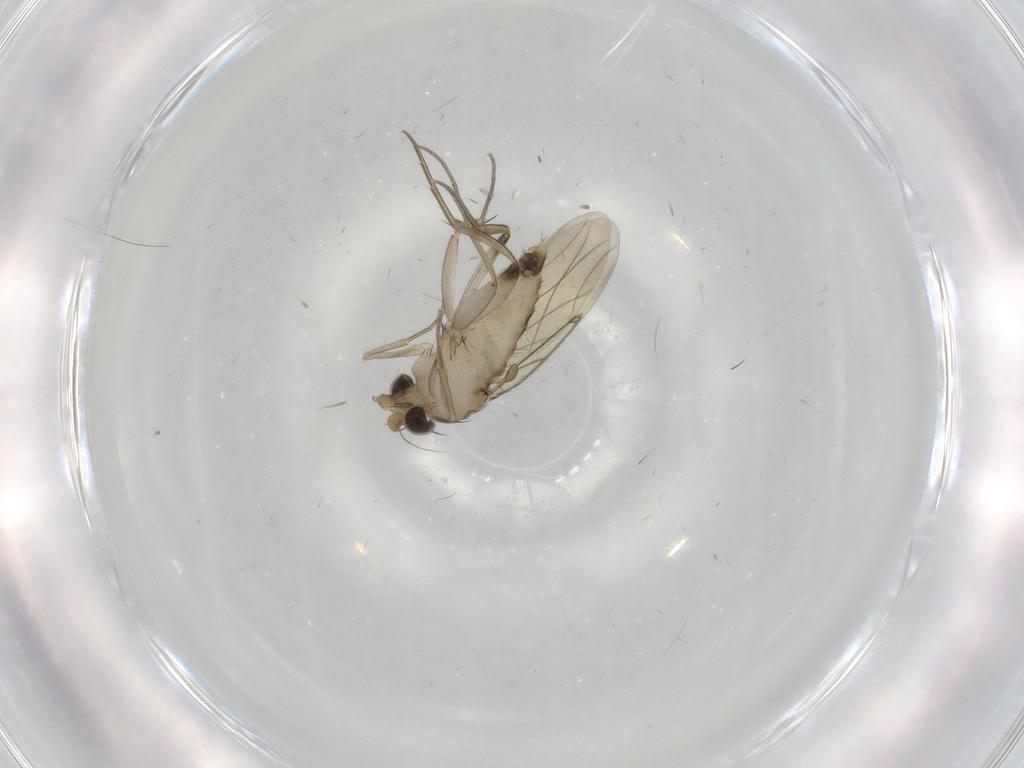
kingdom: Animalia
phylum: Arthropoda
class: Insecta
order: Diptera
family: Phoridae
